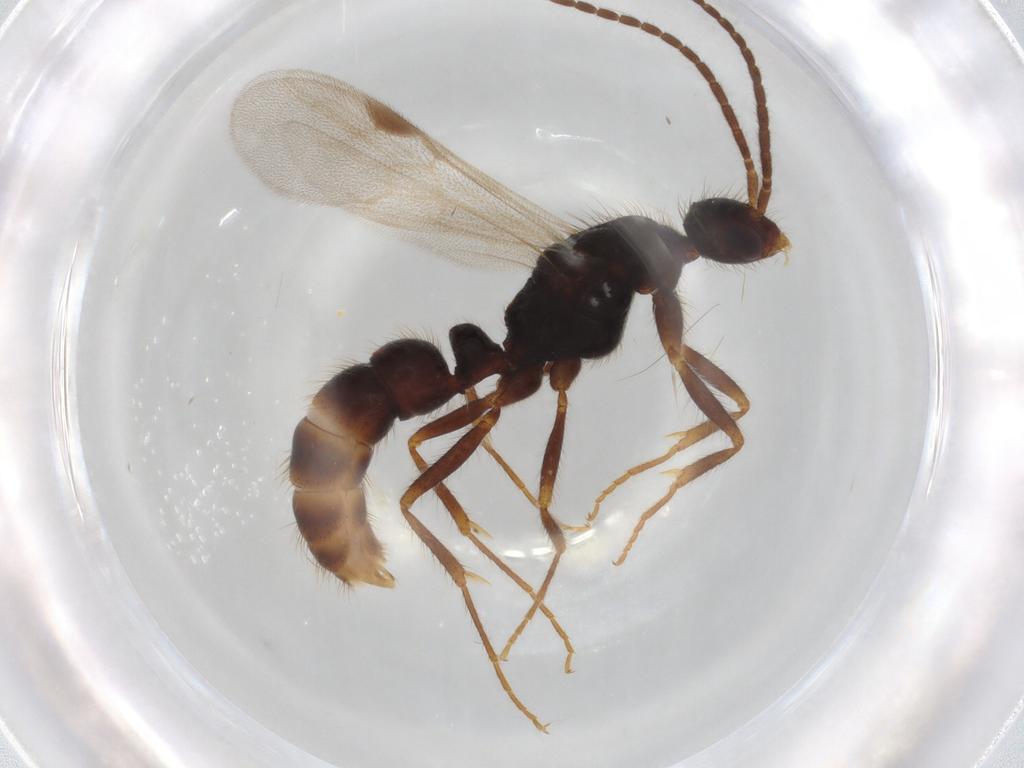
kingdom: Animalia
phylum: Arthropoda
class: Insecta
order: Hymenoptera
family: Formicidae
